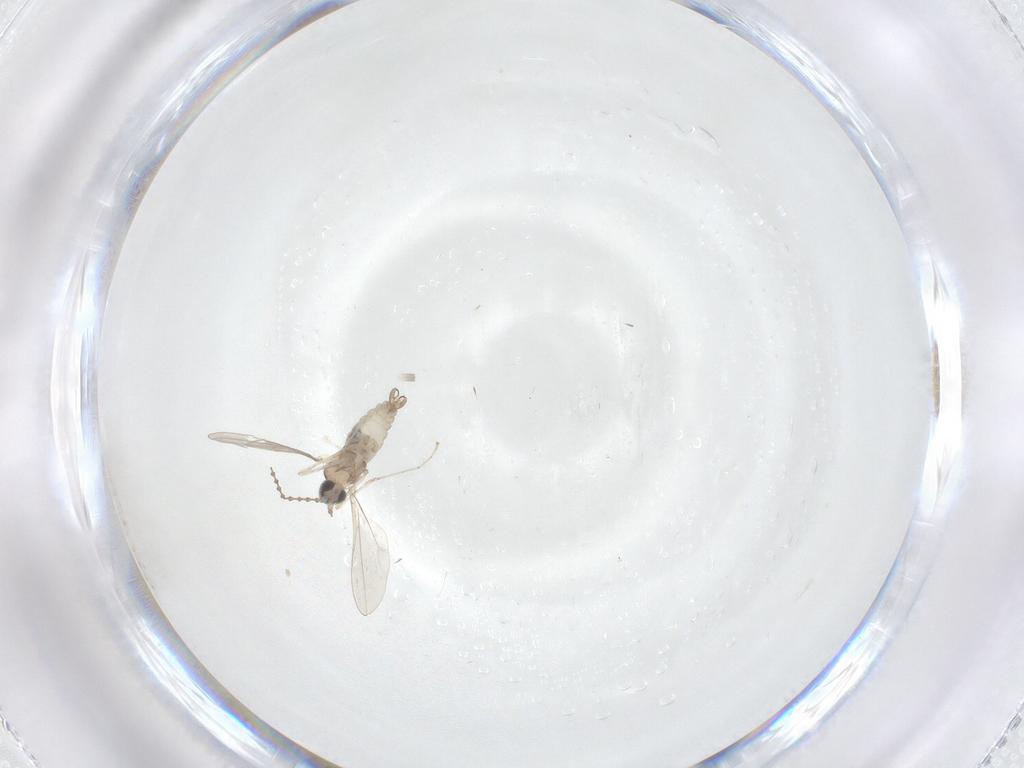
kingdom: Animalia
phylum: Arthropoda
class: Insecta
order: Diptera
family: Cecidomyiidae
